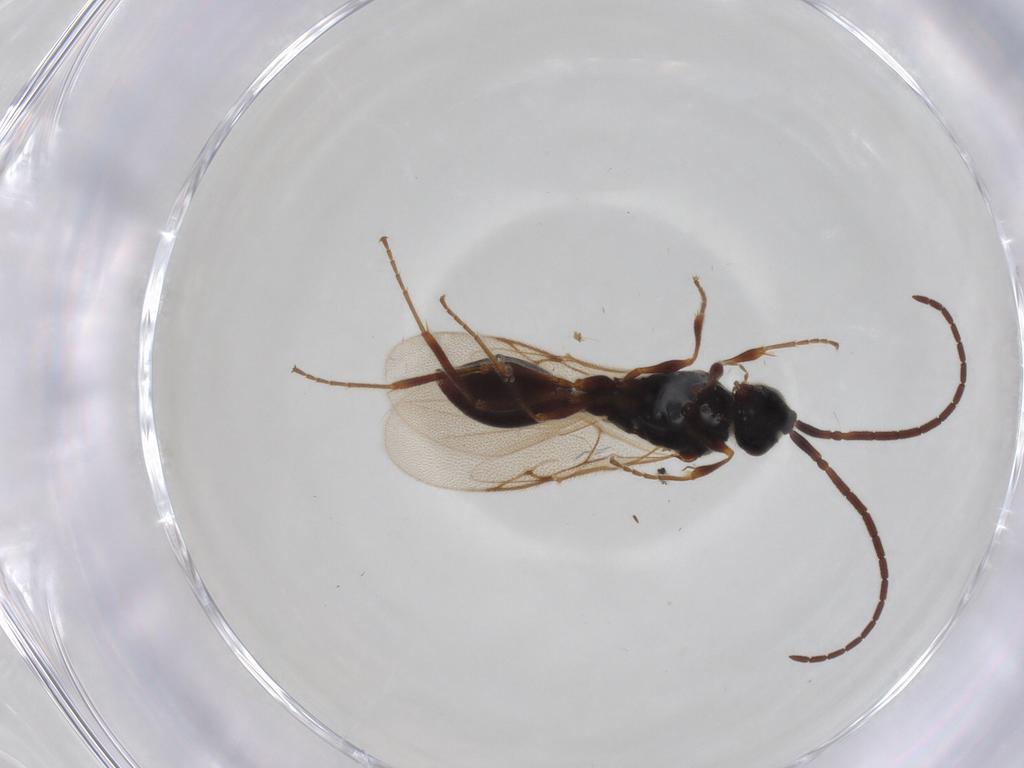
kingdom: Animalia
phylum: Arthropoda
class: Insecta
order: Hymenoptera
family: Diapriidae
